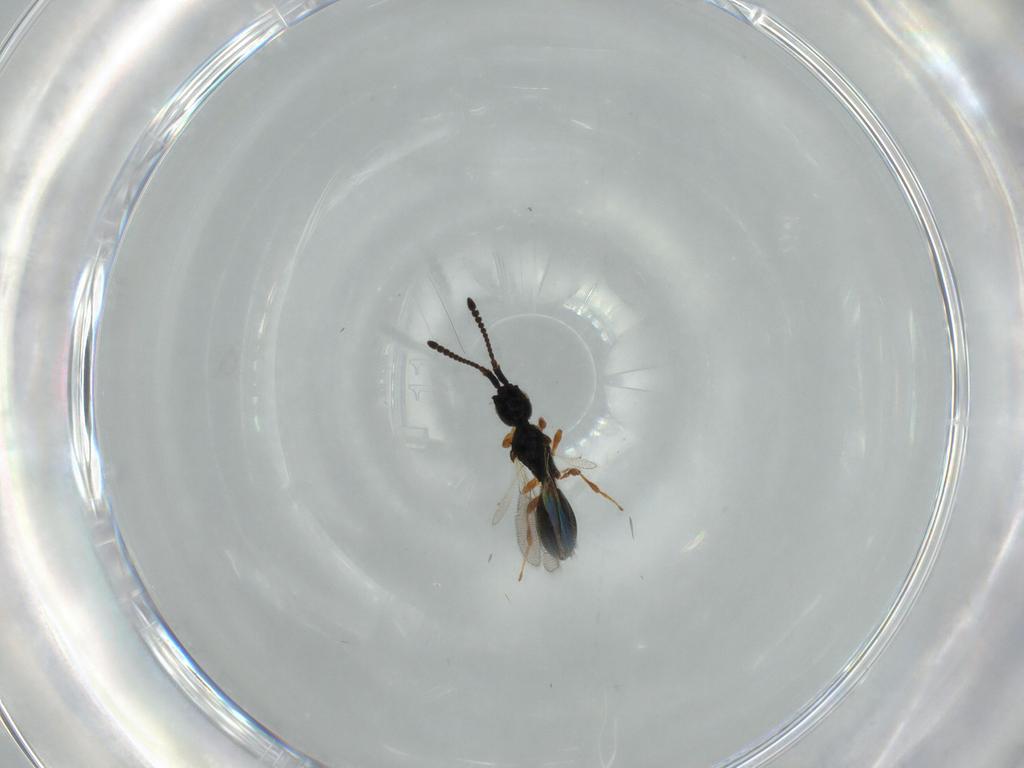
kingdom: Animalia
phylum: Arthropoda
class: Insecta
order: Hymenoptera
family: Diapriidae
